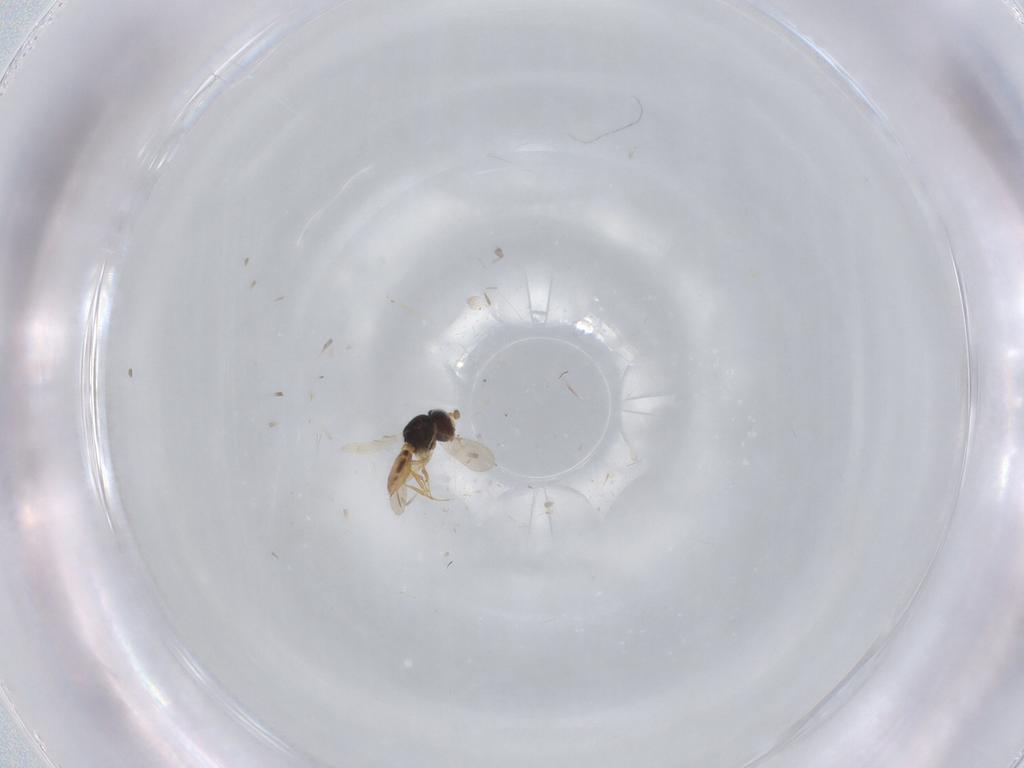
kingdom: Animalia
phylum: Arthropoda
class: Insecta
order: Hymenoptera
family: Scelionidae
